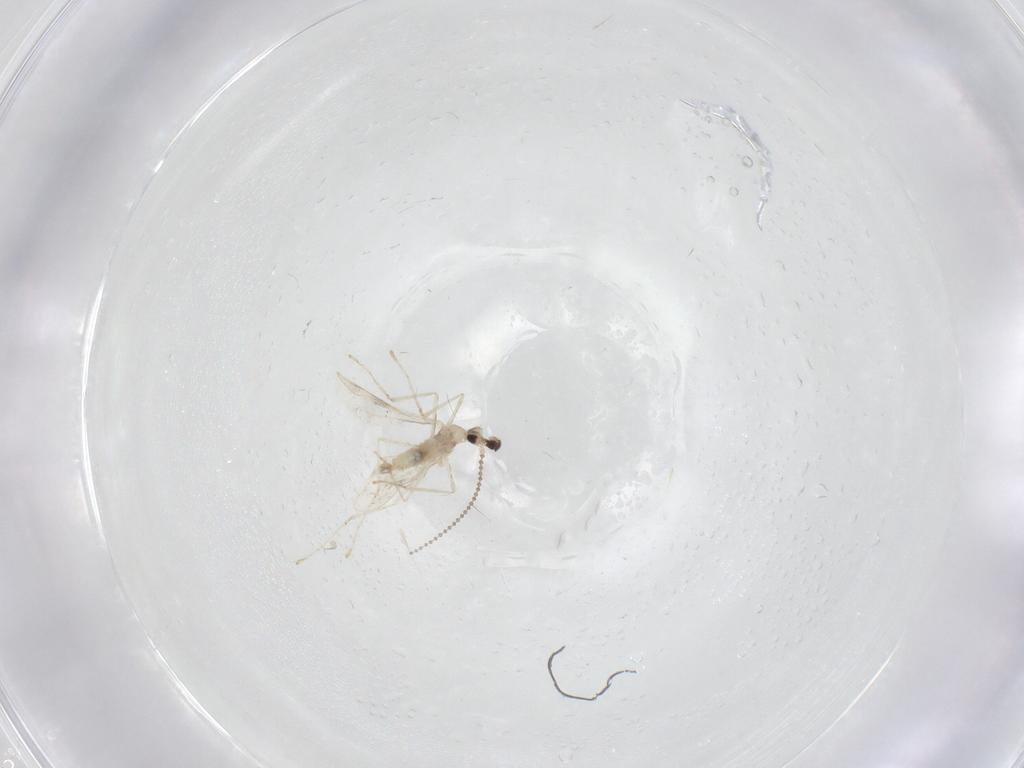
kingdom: Animalia
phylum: Arthropoda
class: Insecta
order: Diptera
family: Cecidomyiidae
